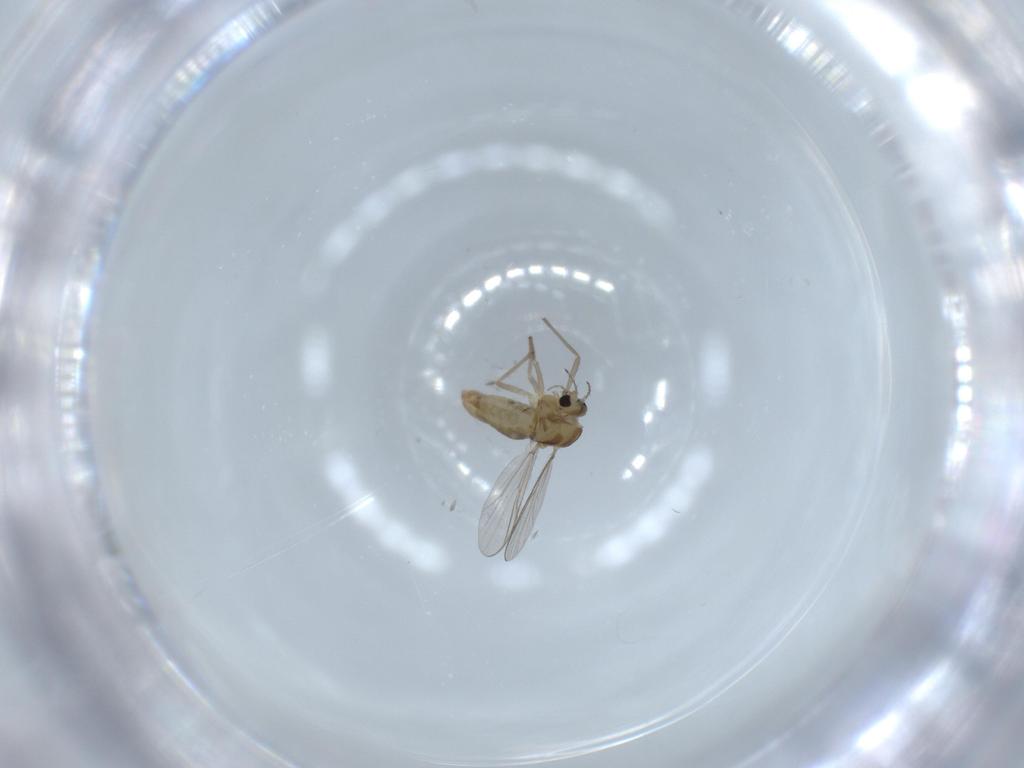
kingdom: Animalia
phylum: Arthropoda
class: Insecta
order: Diptera
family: Chironomidae
